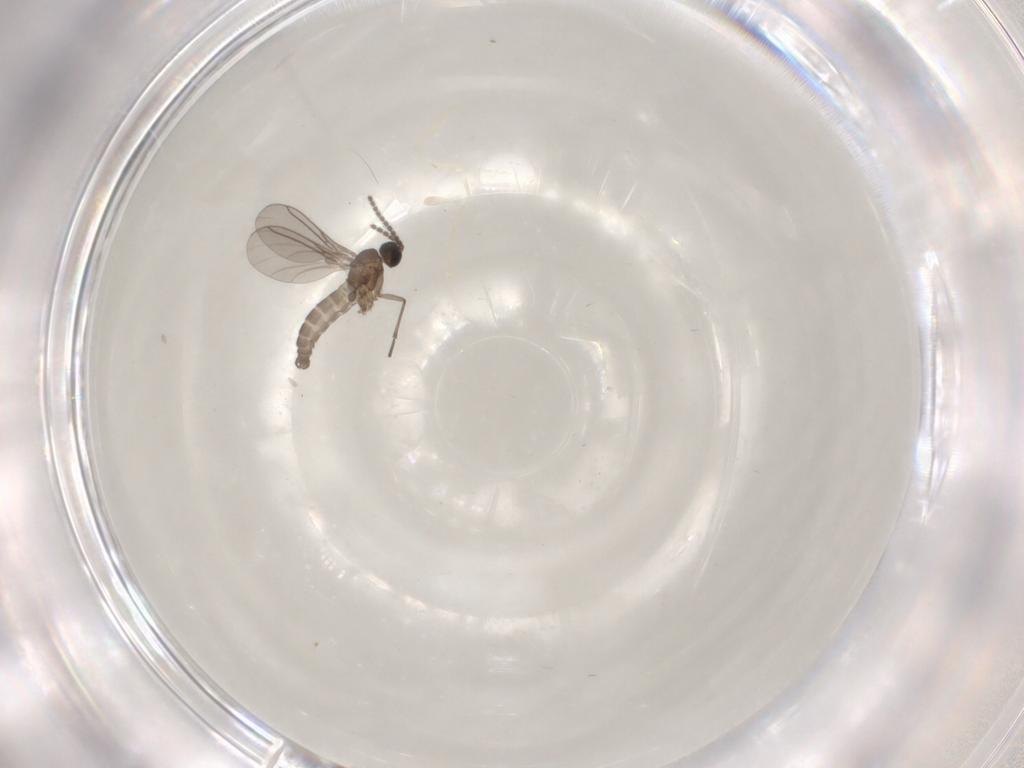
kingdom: Animalia
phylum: Arthropoda
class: Insecta
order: Diptera
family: Sciaridae
